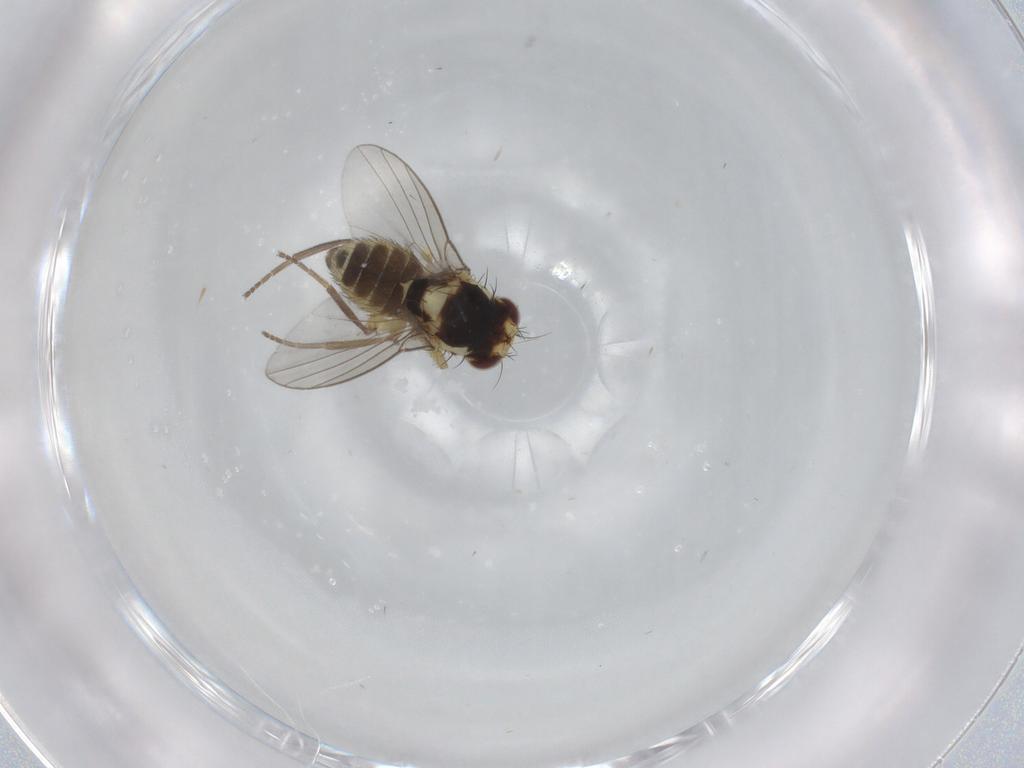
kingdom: Animalia
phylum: Arthropoda
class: Insecta
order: Diptera
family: Agromyzidae
